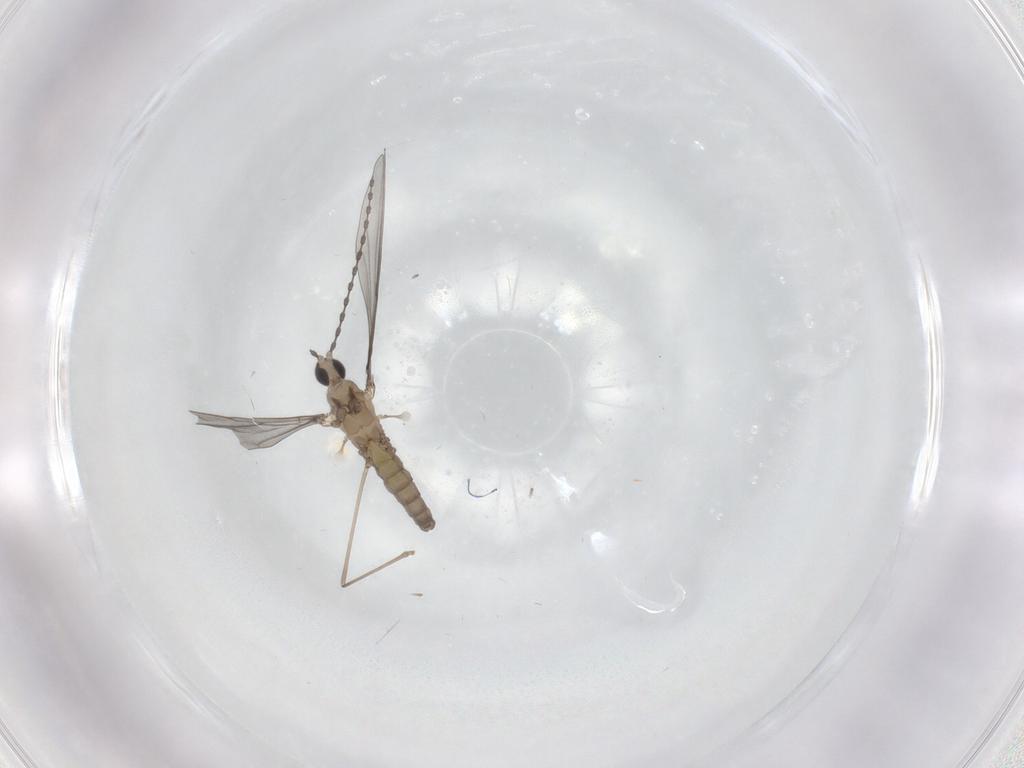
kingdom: Animalia
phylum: Arthropoda
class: Insecta
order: Diptera
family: Cecidomyiidae
